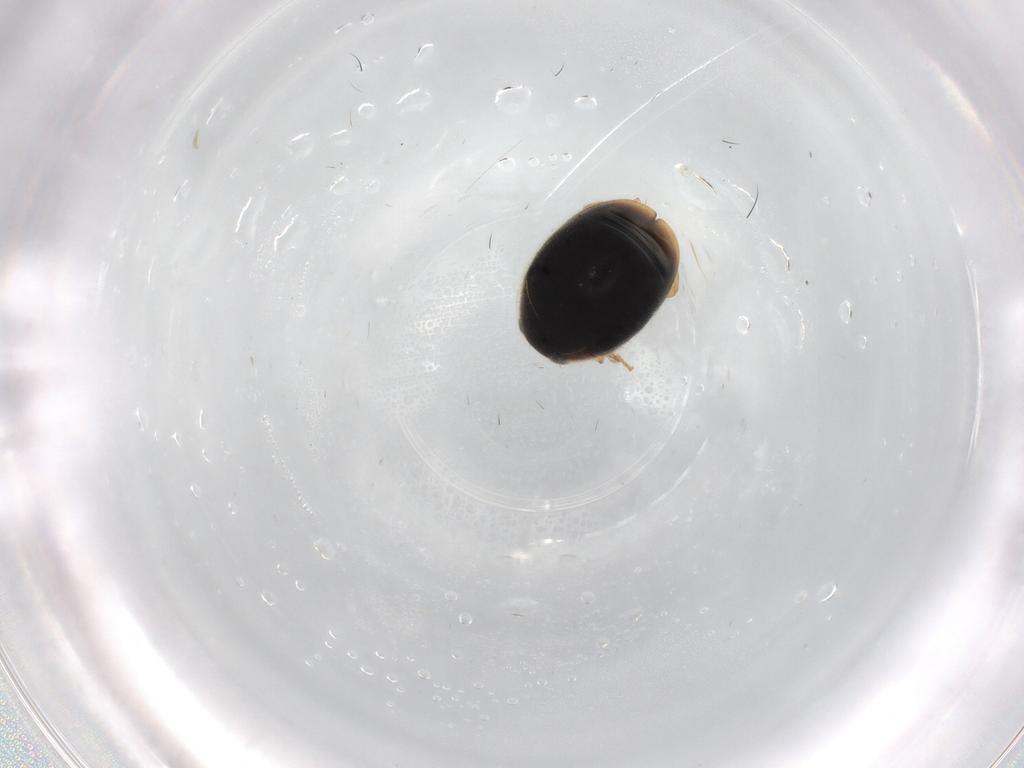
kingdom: Animalia
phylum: Arthropoda
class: Insecta
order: Coleoptera
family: Coccinellidae
